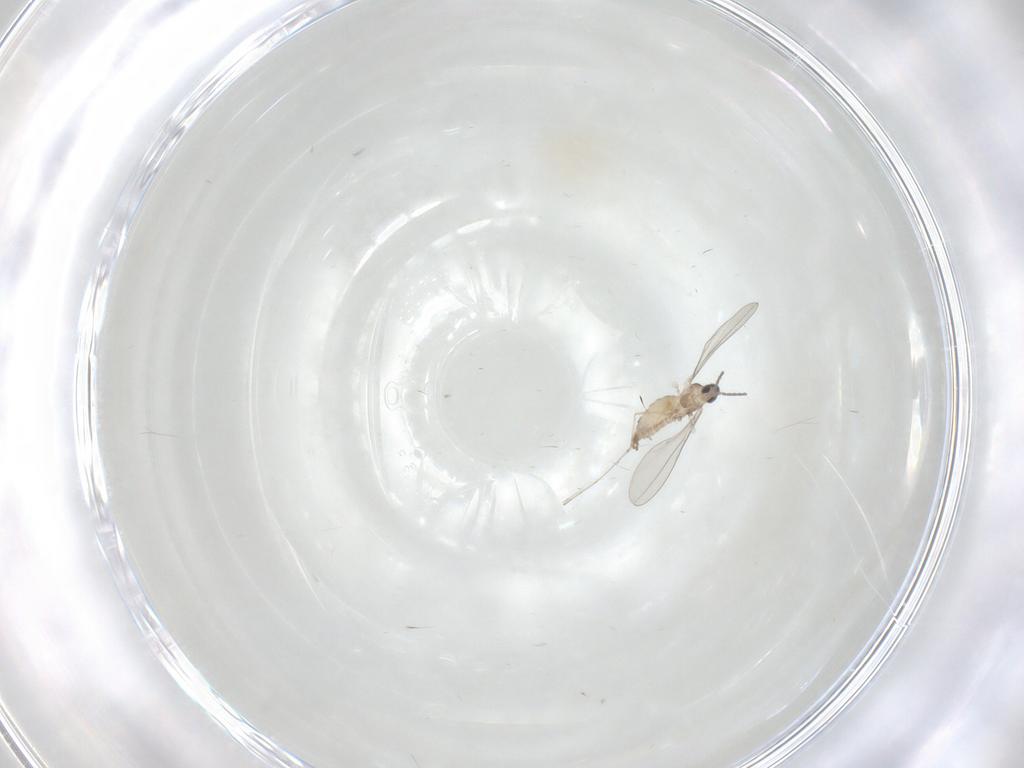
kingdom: Animalia
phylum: Arthropoda
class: Insecta
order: Diptera
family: Cecidomyiidae
